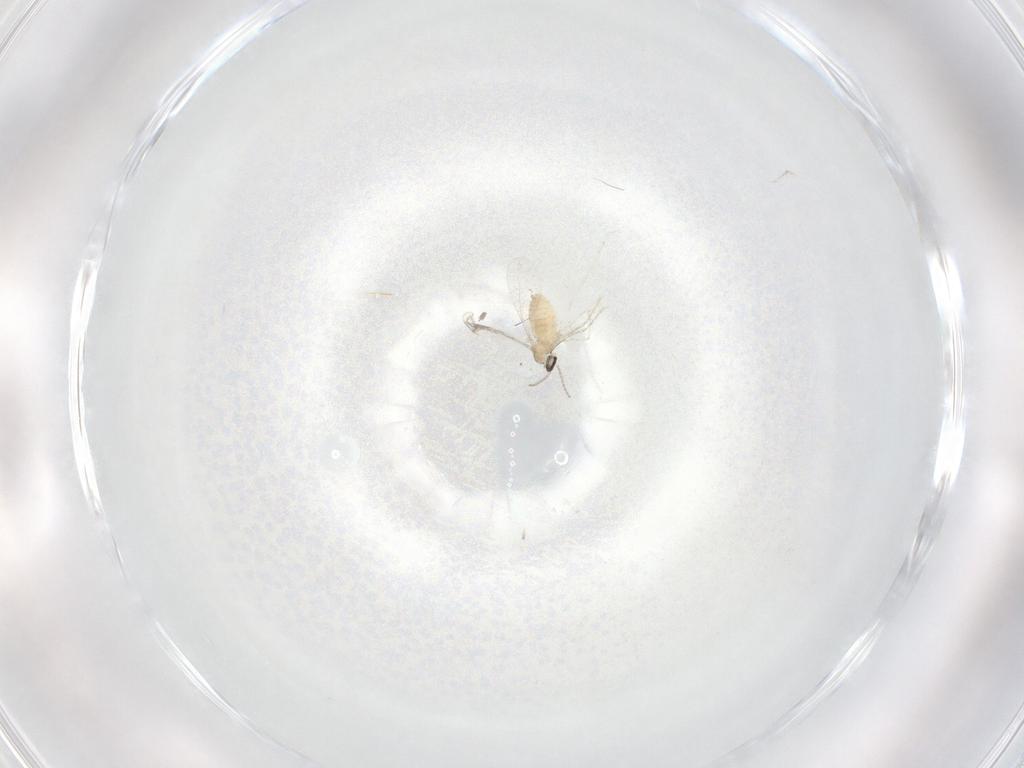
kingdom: Animalia
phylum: Arthropoda
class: Insecta
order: Diptera
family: Cecidomyiidae
